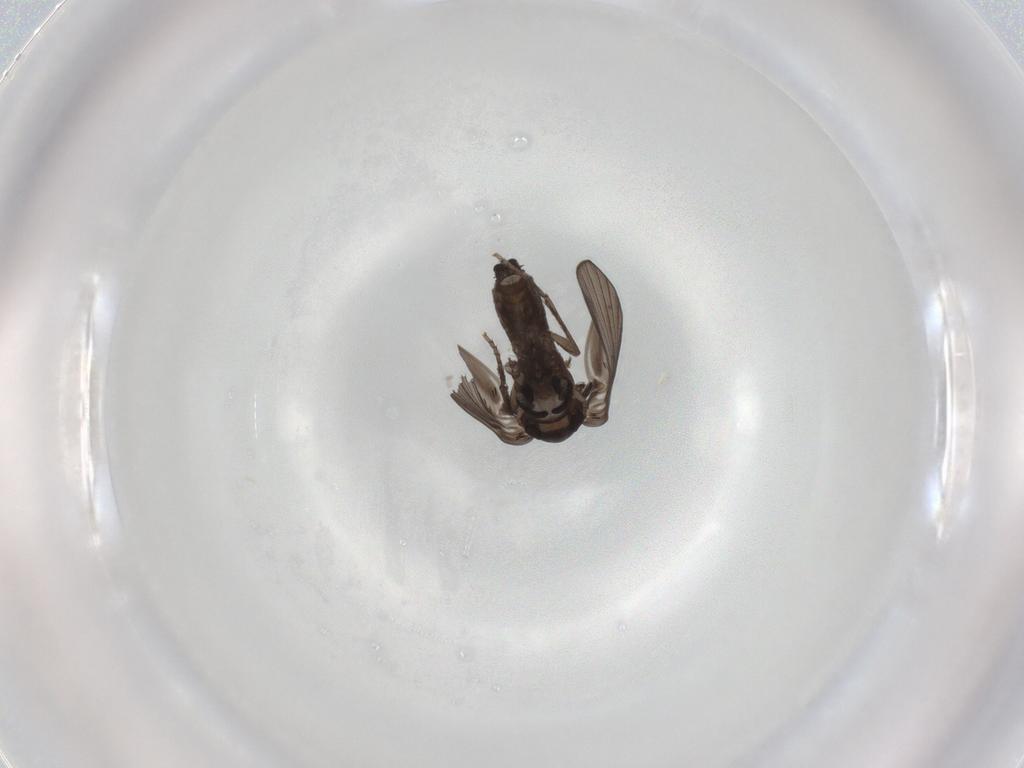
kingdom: Animalia
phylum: Arthropoda
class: Insecta
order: Diptera
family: Psychodidae
